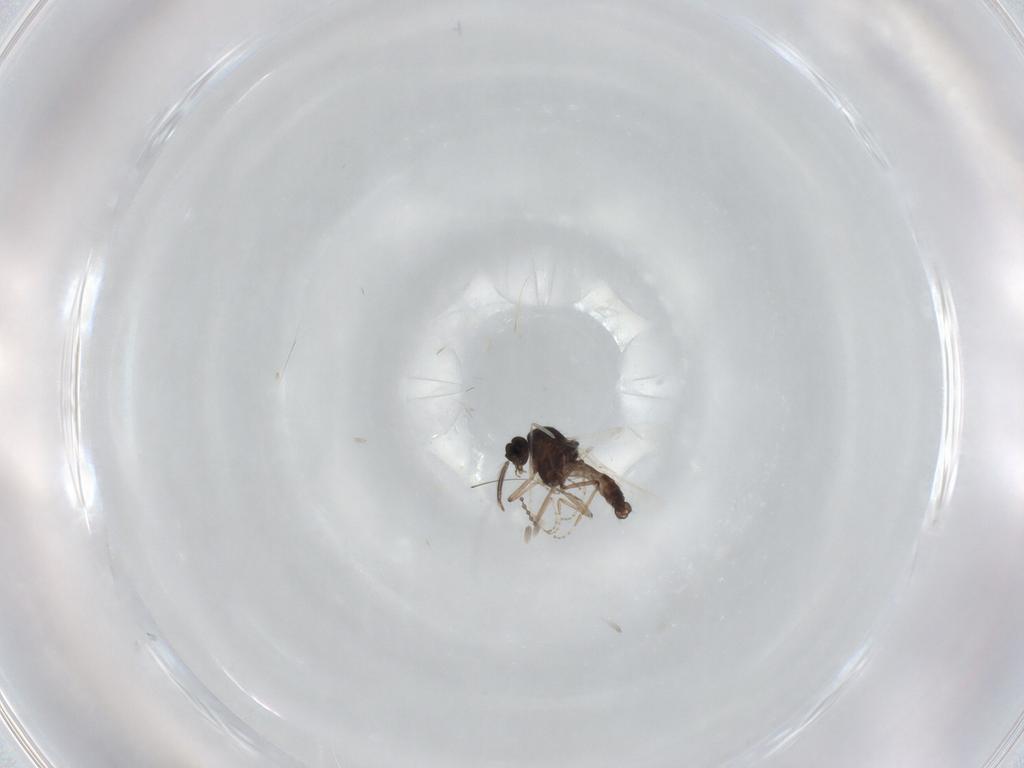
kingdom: Animalia
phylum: Arthropoda
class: Insecta
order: Diptera
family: Ceratopogonidae
